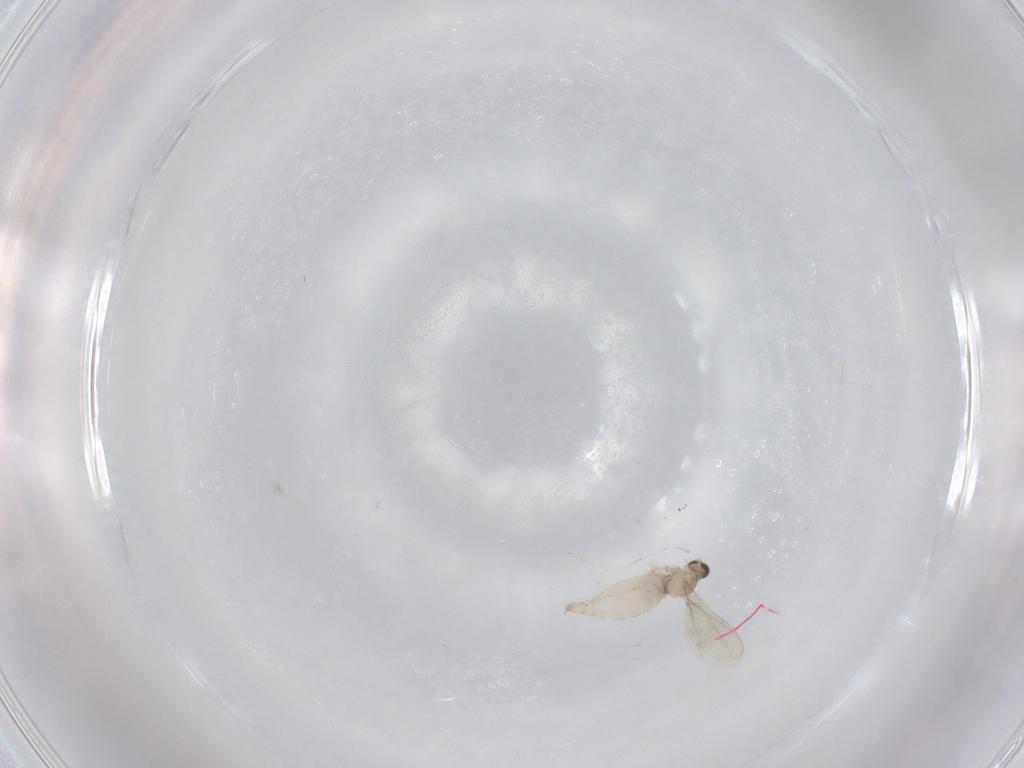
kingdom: Animalia
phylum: Arthropoda
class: Insecta
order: Diptera
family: Cecidomyiidae
